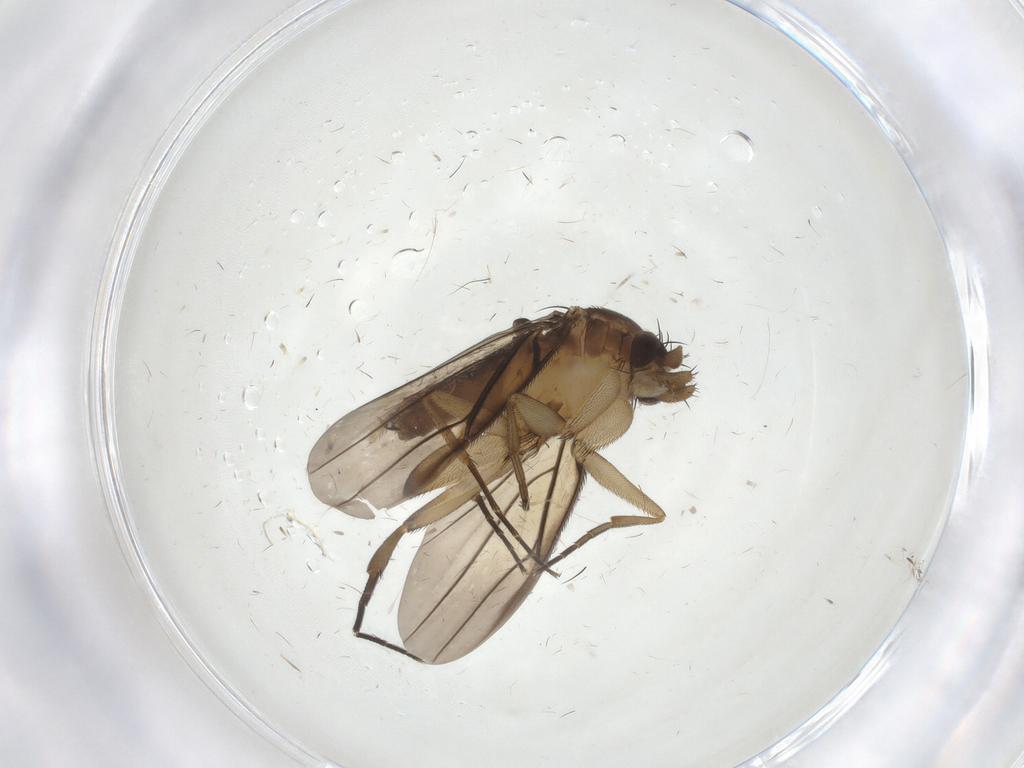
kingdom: Animalia
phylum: Arthropoda
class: Insecta
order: Diptera
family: Phoridae
